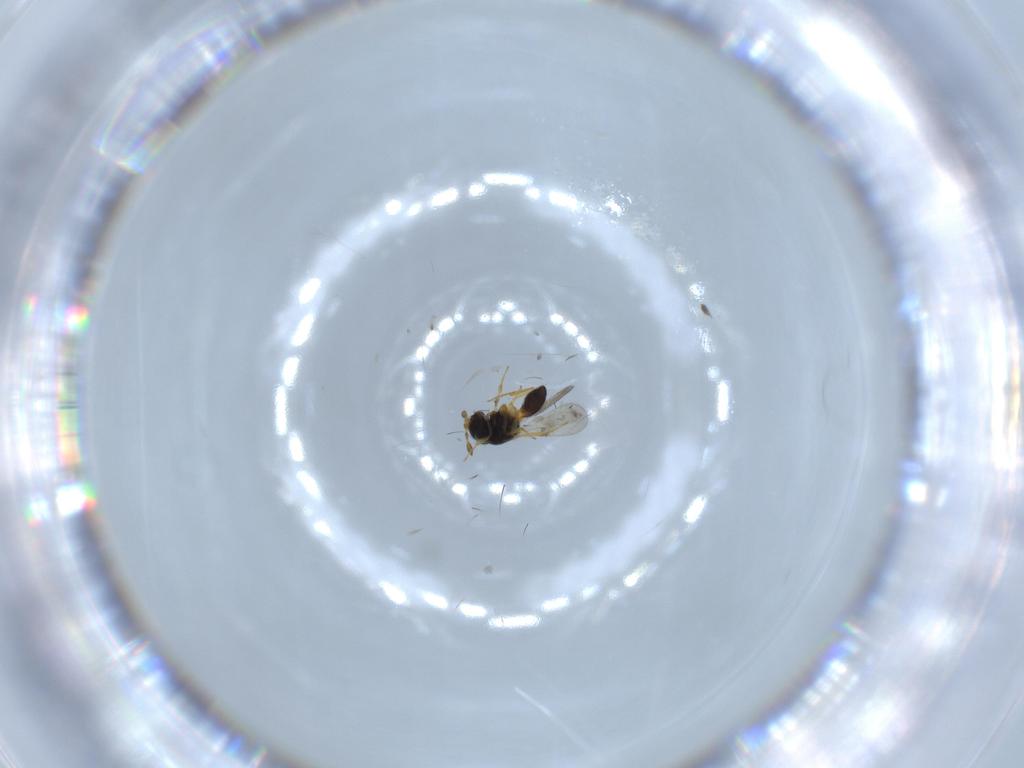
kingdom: Animalia
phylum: Arthropoda
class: Insecta
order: Hymenoptera
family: Scelionidae
